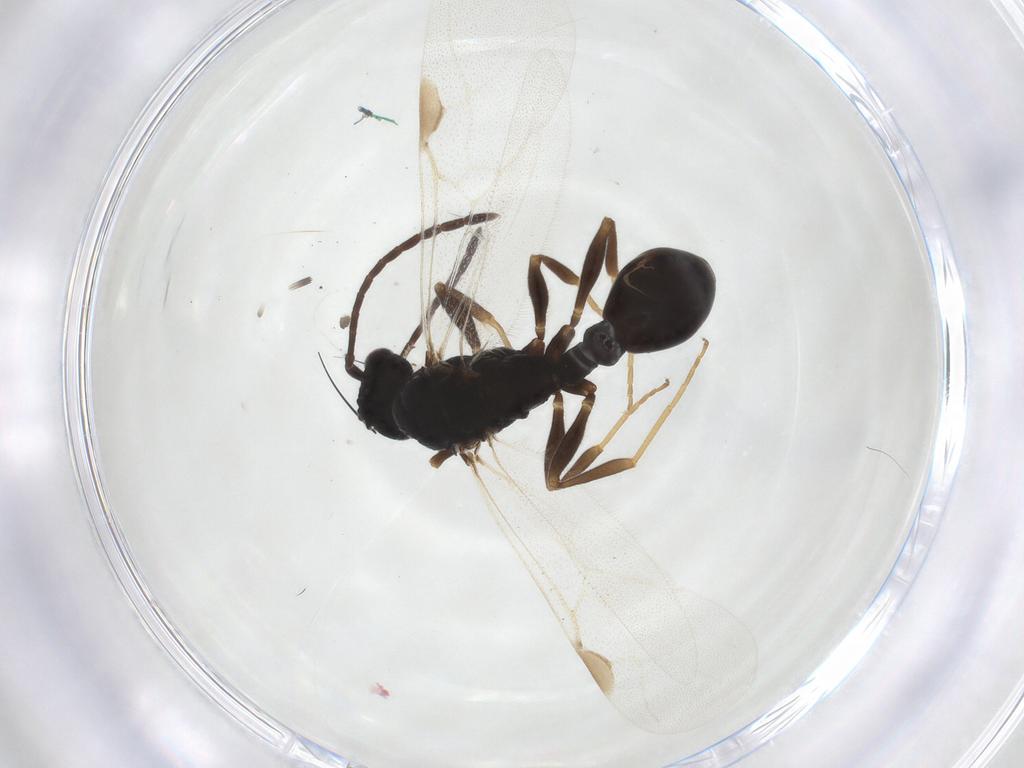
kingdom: Animalia
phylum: Arthropoda
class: Insecta
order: Hymenoptera
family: Formicidae
